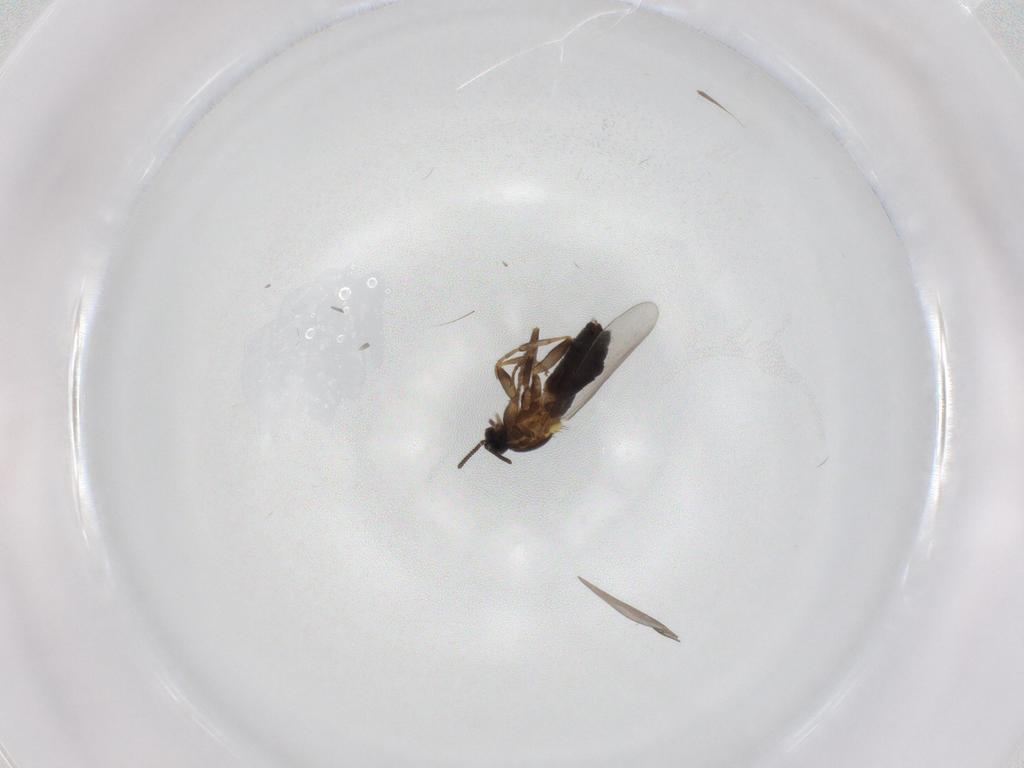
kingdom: Animalia
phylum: Arthropoda
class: Insecta
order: Diptera
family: Scatopsidae
